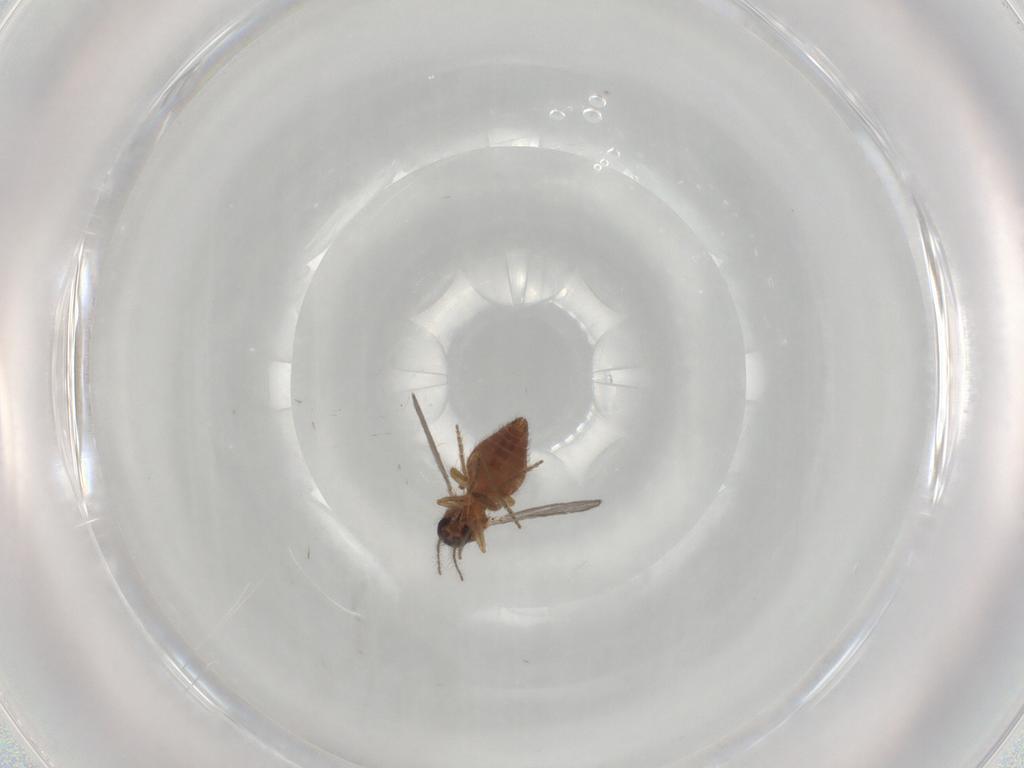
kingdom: Animalia
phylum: Arthropoda
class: Insecta
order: Diptera
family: Ceratopogonidae
